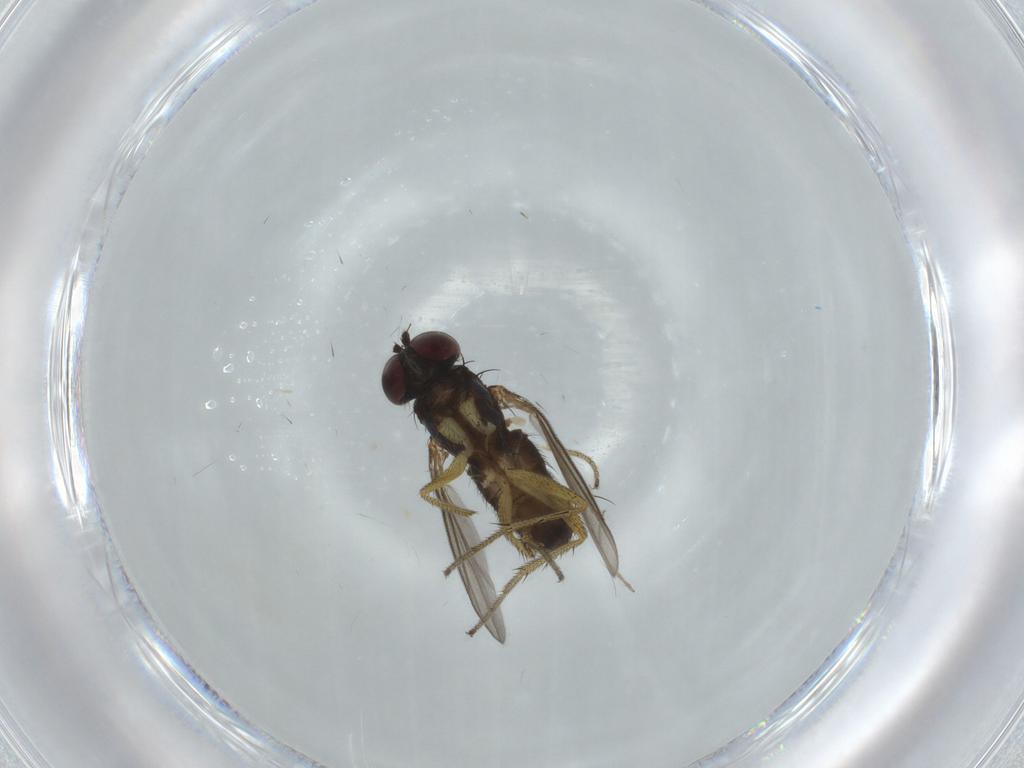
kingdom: Animalia
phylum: Arthropoda
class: Insecta
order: Diptera
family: Dolichopodidae
